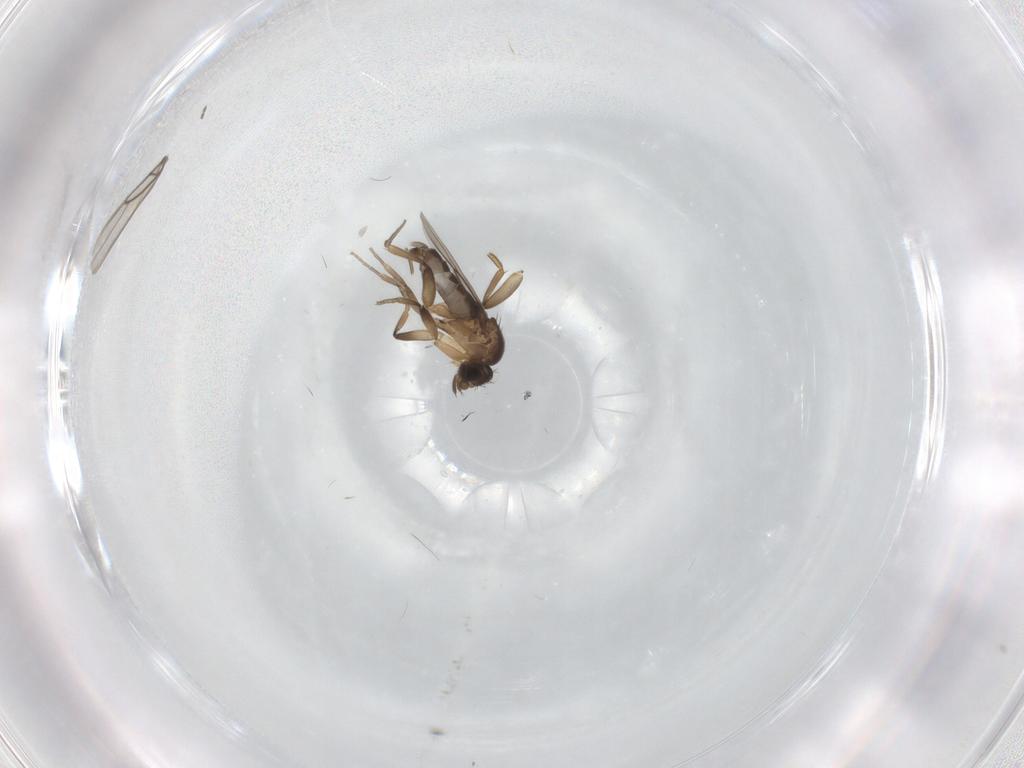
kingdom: Animalia
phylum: Arthropoda
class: Insecta
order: Diptera
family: Phoridae
